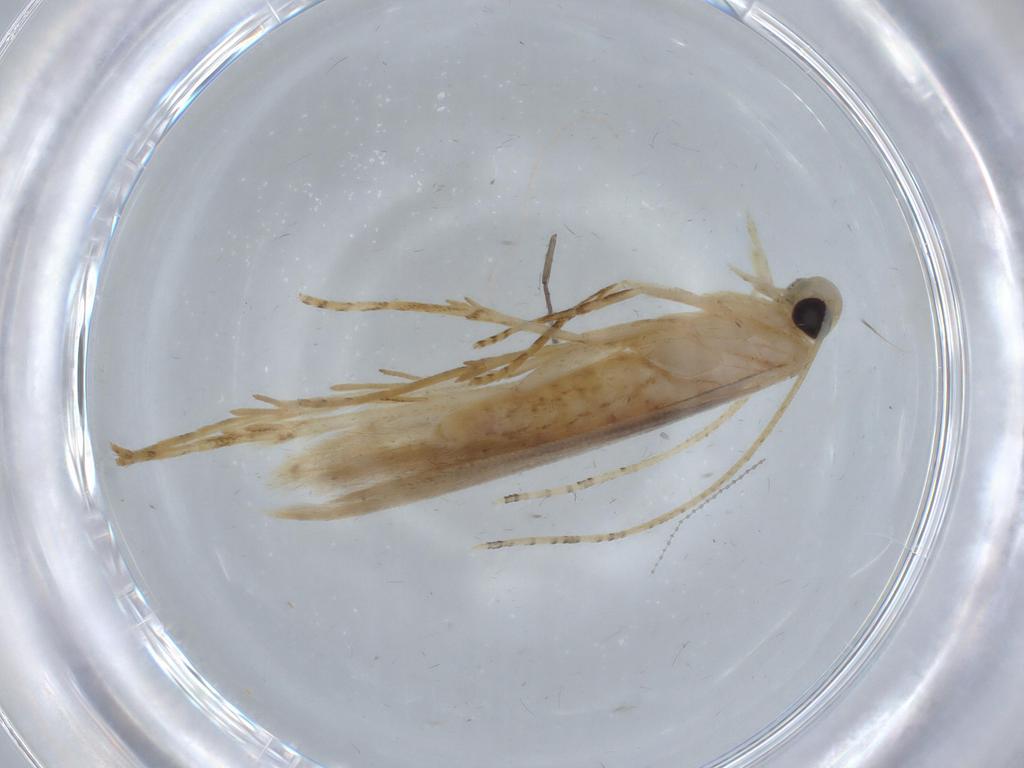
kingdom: Animalia
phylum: Arthropoda
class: Insecta
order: Lepidoptera
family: Batrachedridae
